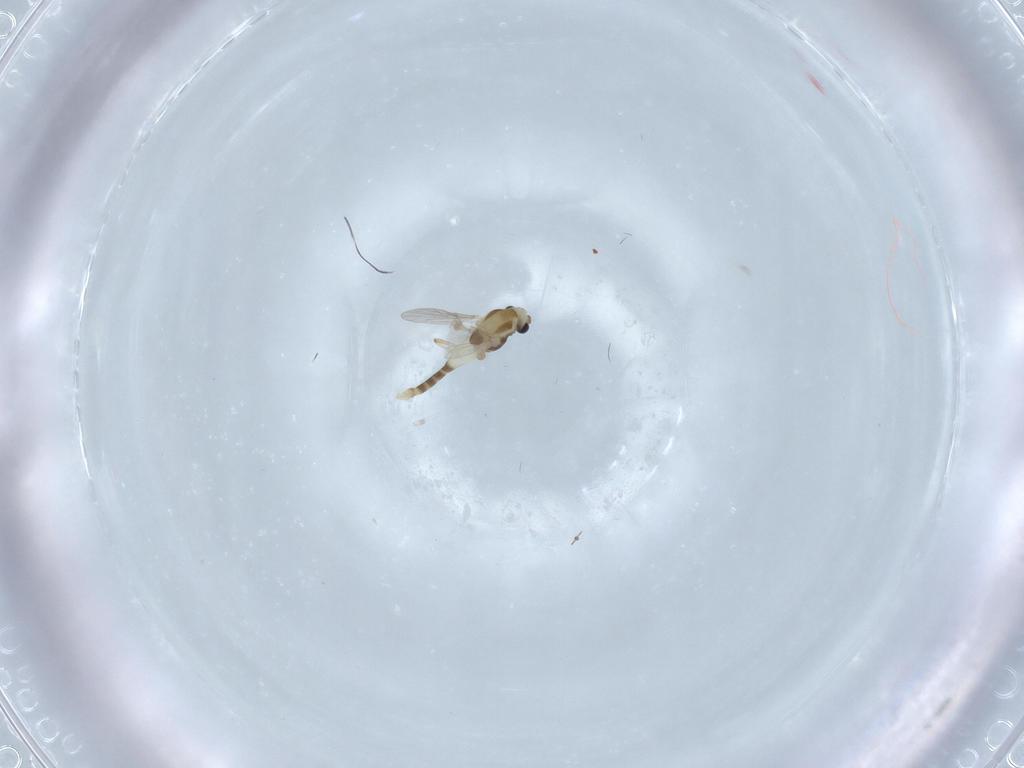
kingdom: Animalia
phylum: Arthropoda
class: Insecta
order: Diptera
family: Chironomidae
